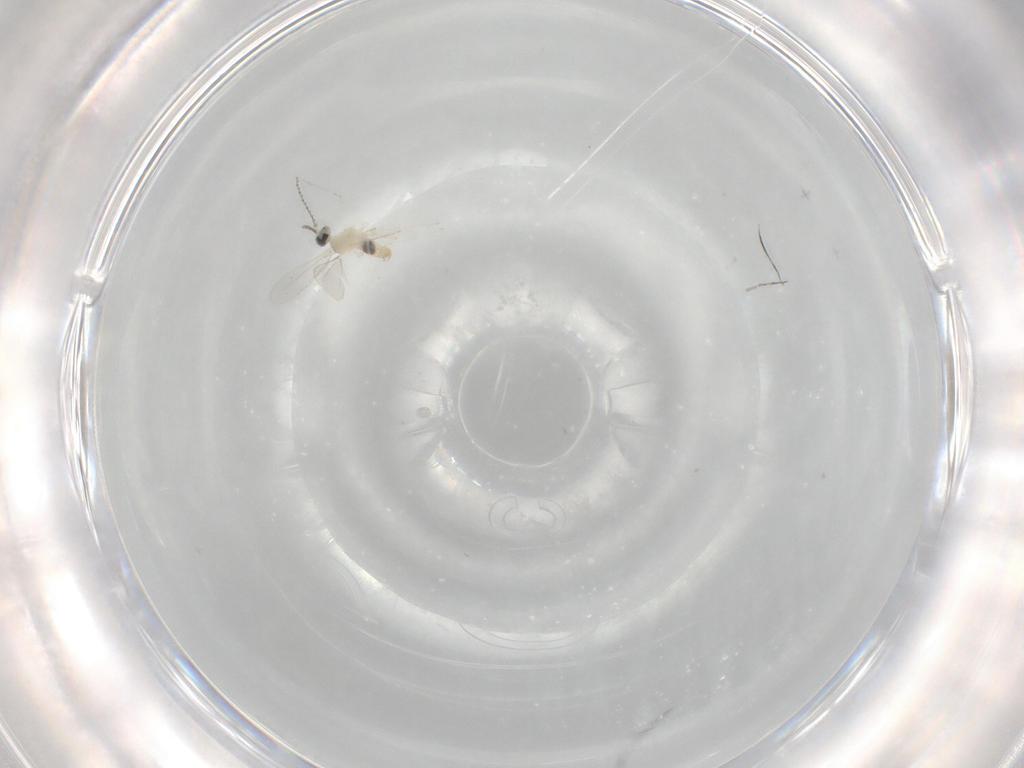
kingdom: Animalia
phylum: Arthropoda
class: Insecta
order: Diptera
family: Cecidomyiidae
